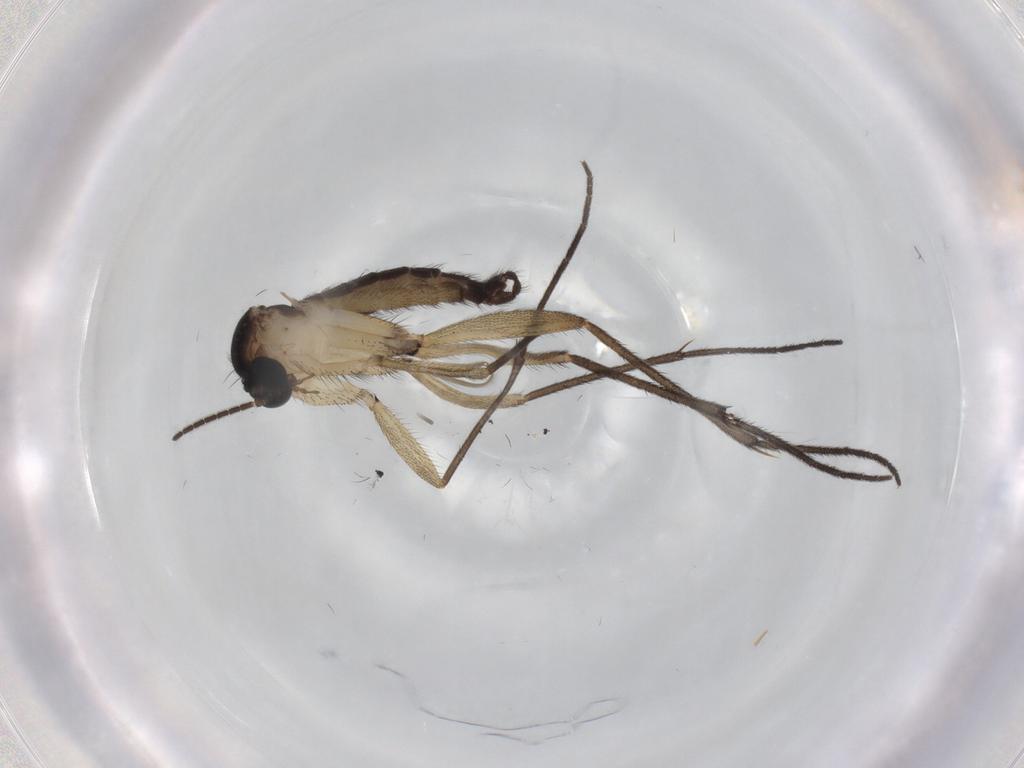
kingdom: Animalia
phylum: Arthropoda
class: Insecta
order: Diptera
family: Sciaridae
